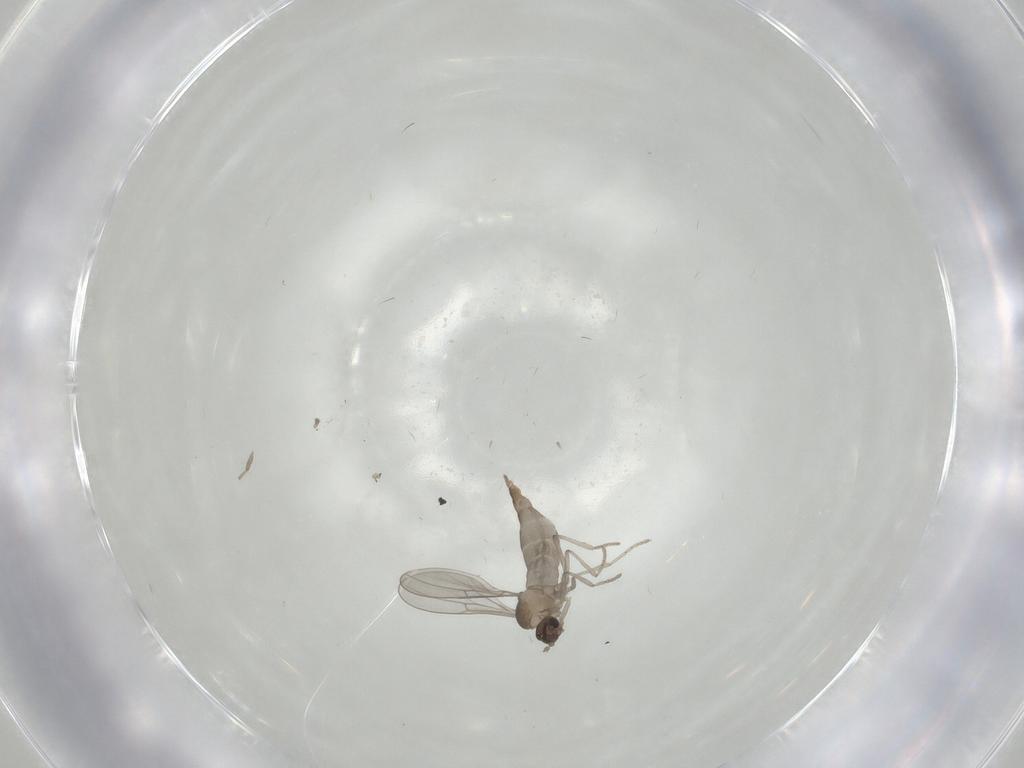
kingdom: Animalia
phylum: Arthropoda
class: Insecta
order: Diptera
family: Cecidomyiidae
